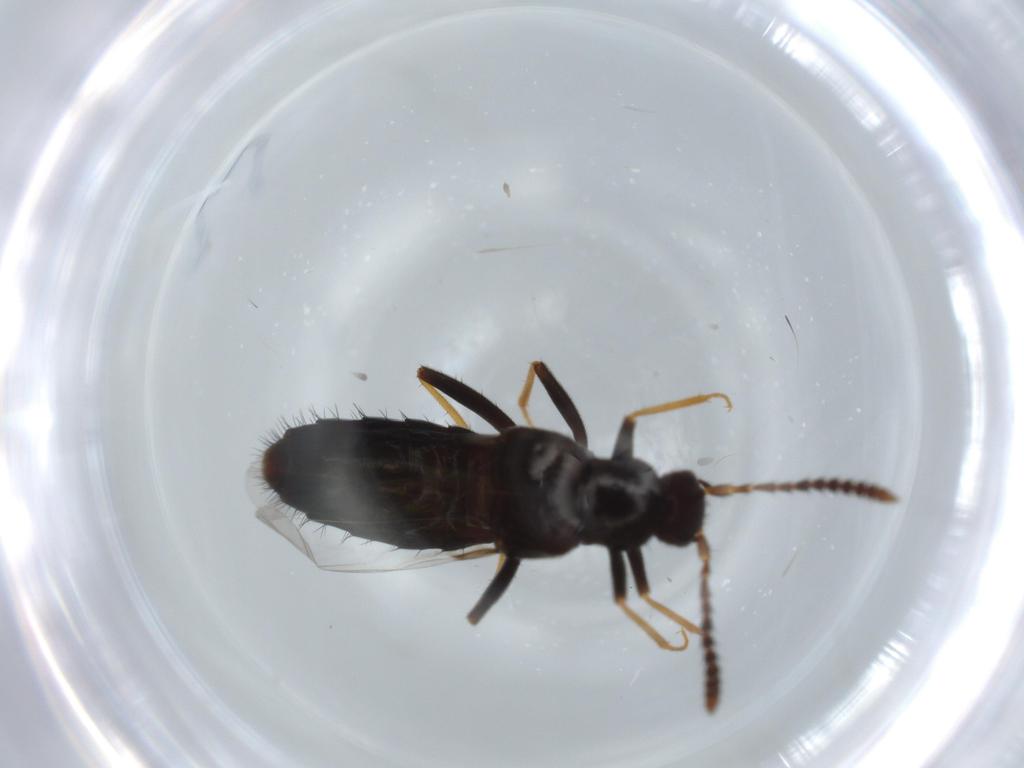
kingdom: Animalia
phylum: Arthropoda
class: Insecta
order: Coleoptera
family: Staphylinidae
